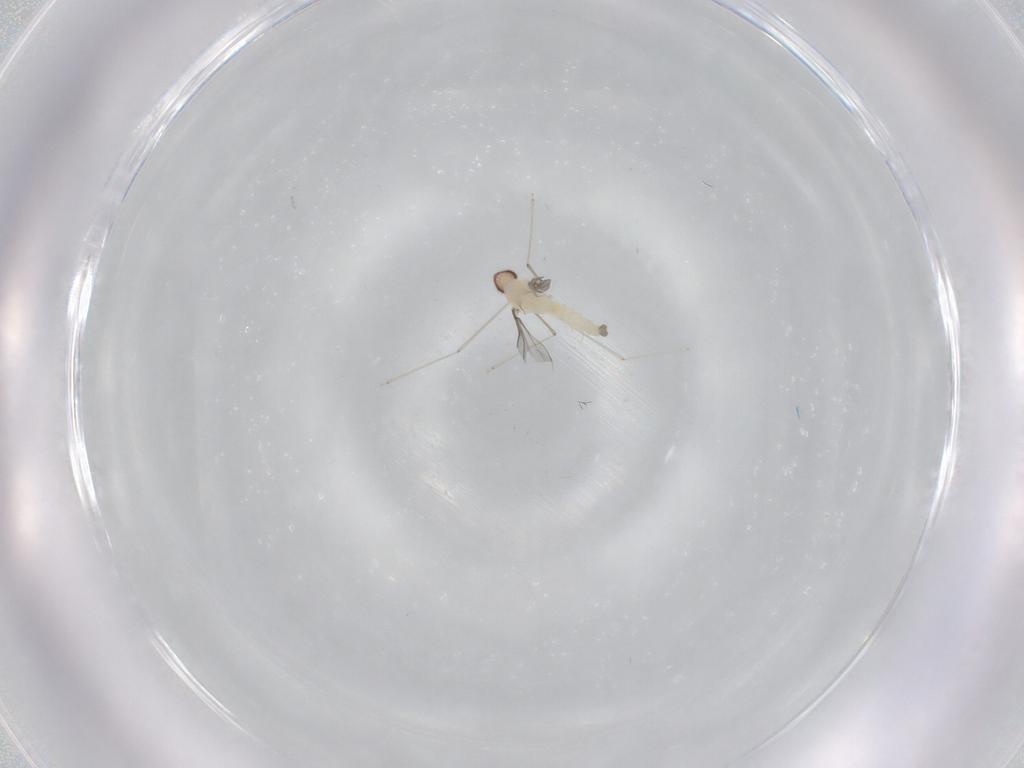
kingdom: Animalia
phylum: Arthropoda
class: Insecta
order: Diptera
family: Cecidomyiidae
